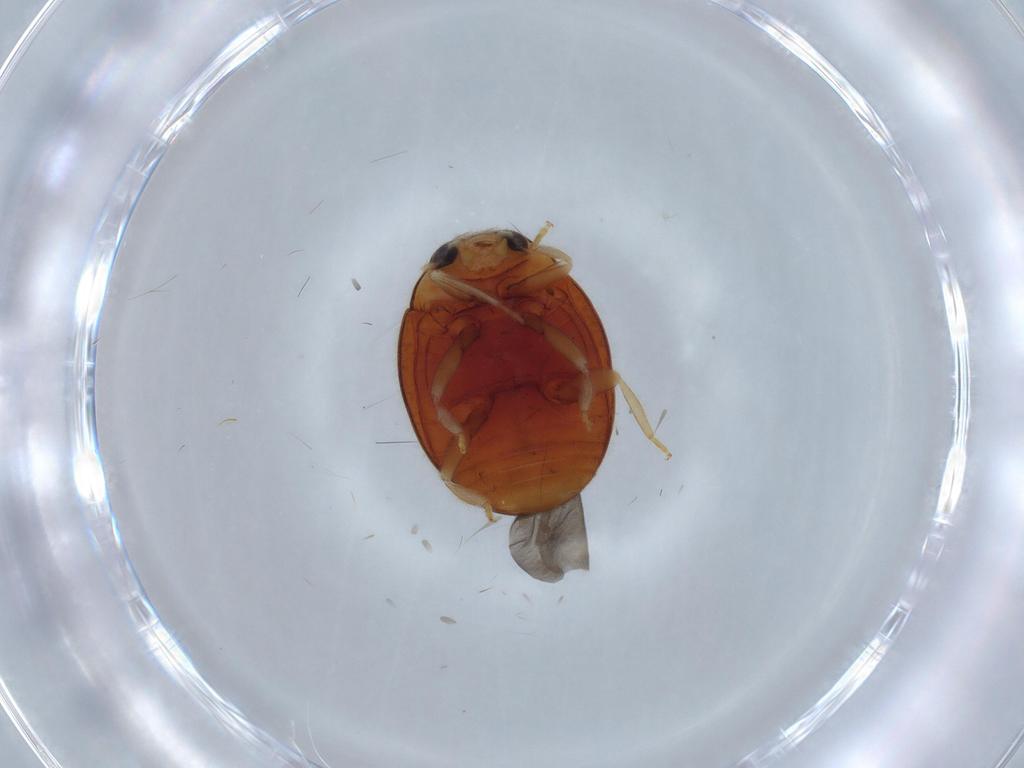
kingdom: Animalia
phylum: Arthropoda
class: Insecta
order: Coleoptera
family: Coccinellidae
